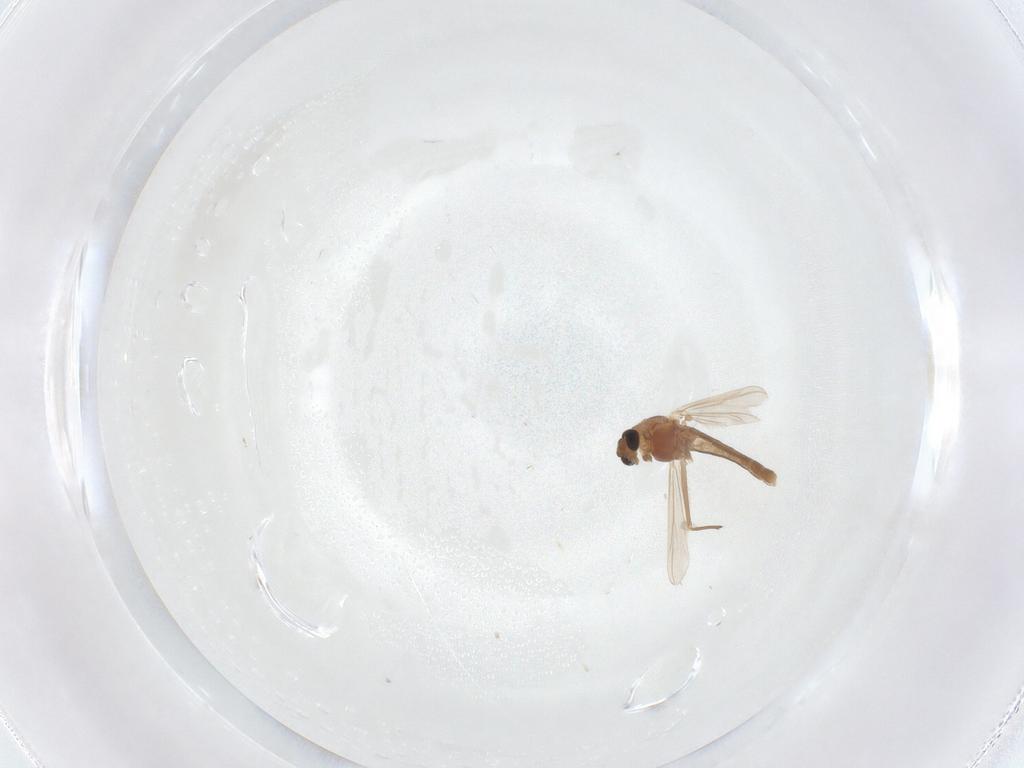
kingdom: Animalia
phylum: Arthropoda
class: Insecta
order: Diptera
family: Chironomidae
